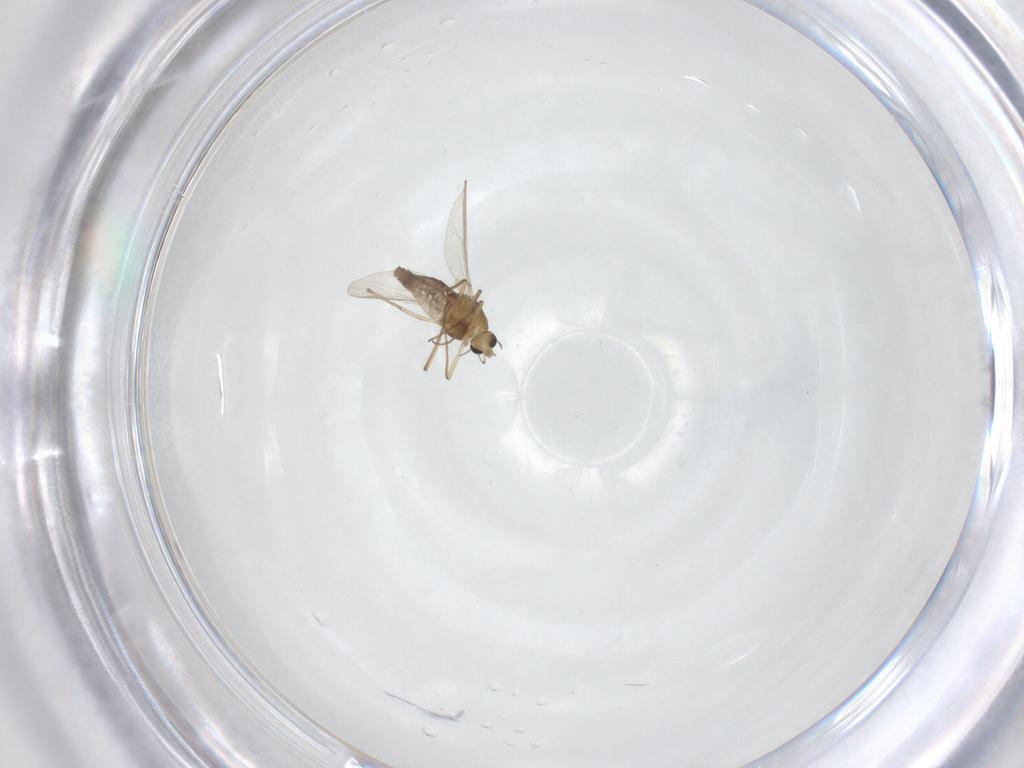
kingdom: Animalia
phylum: Arthropoda
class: Insecta
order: Diptera
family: Chironomidae
